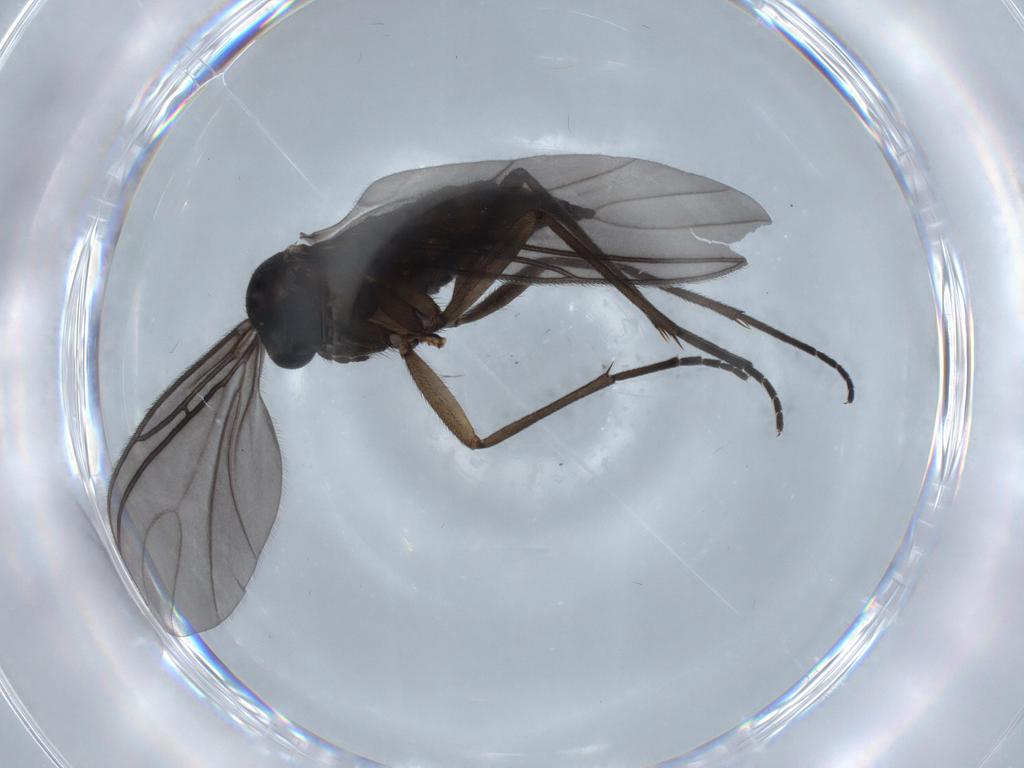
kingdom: Animalia
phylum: Arthropoda
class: Insecta
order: Diptera
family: Sciaridae
